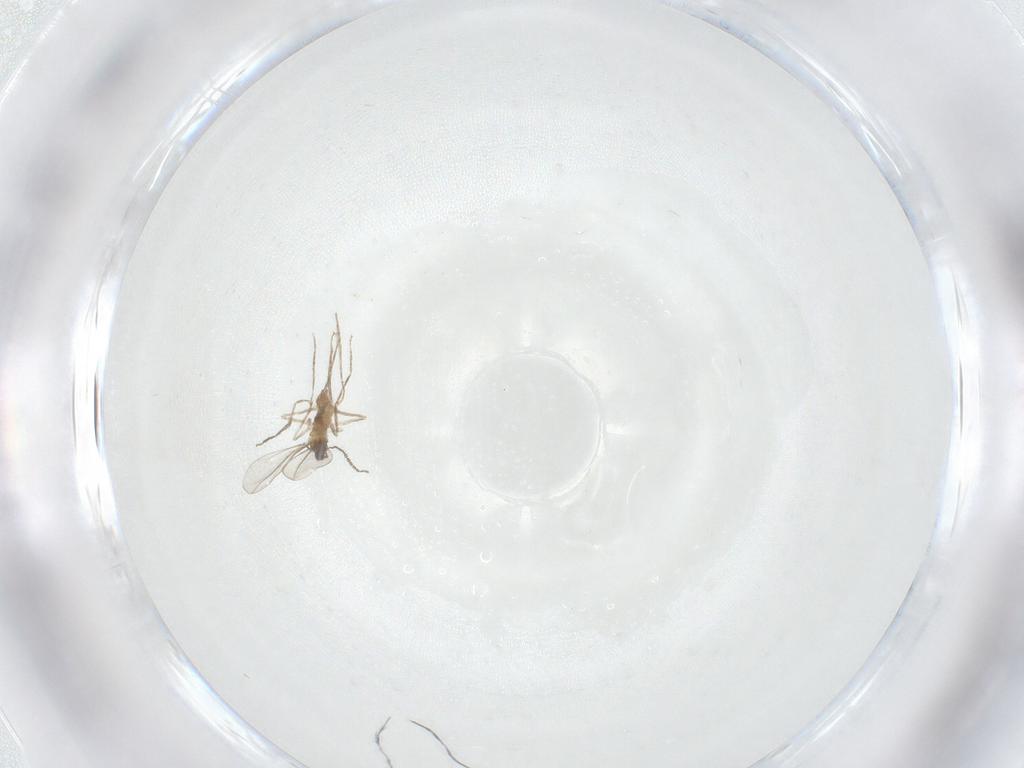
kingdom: Animalia
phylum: Arthropoda
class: Insecta
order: Diptera
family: Cecidomyiidae
